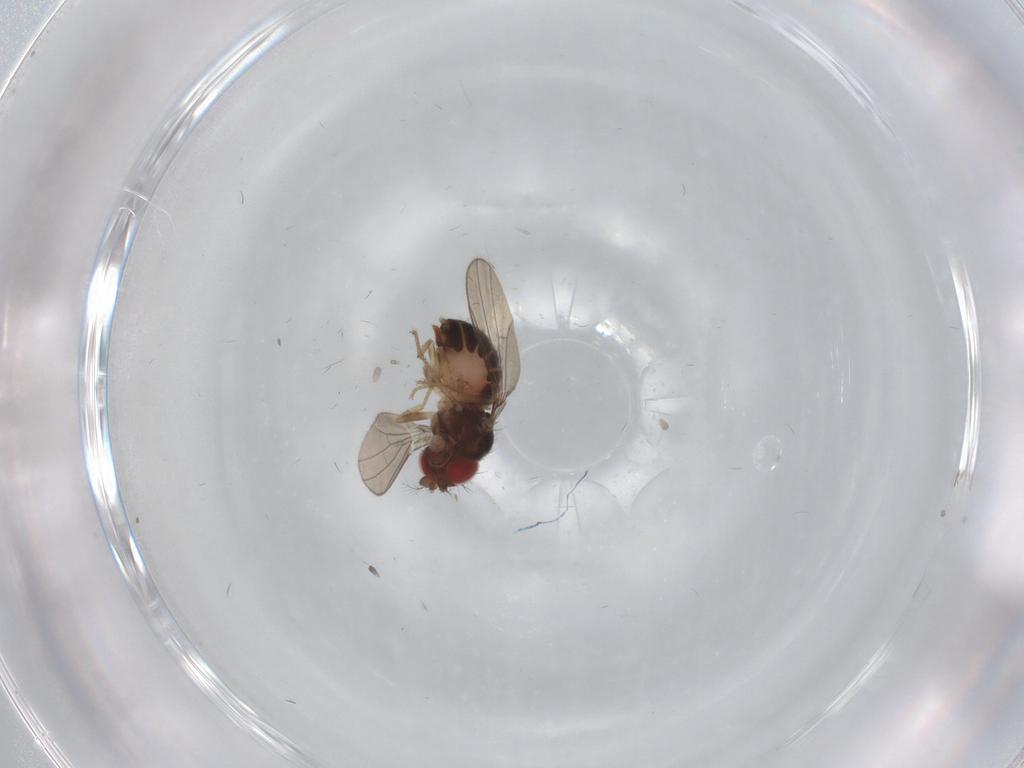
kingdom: Animalia
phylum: Arthropoda
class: Insecta
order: Diptera
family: Drosophilidae
